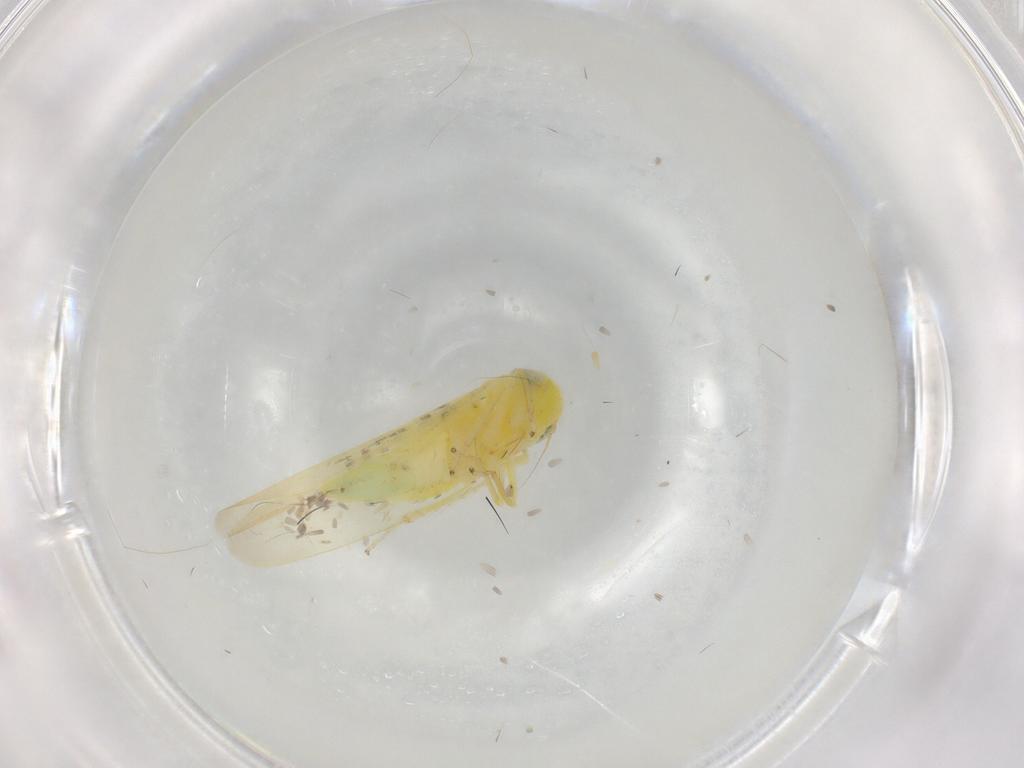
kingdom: Animalia
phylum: Arthropoda
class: Insecta
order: Hemiptera
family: Cicadellidae
